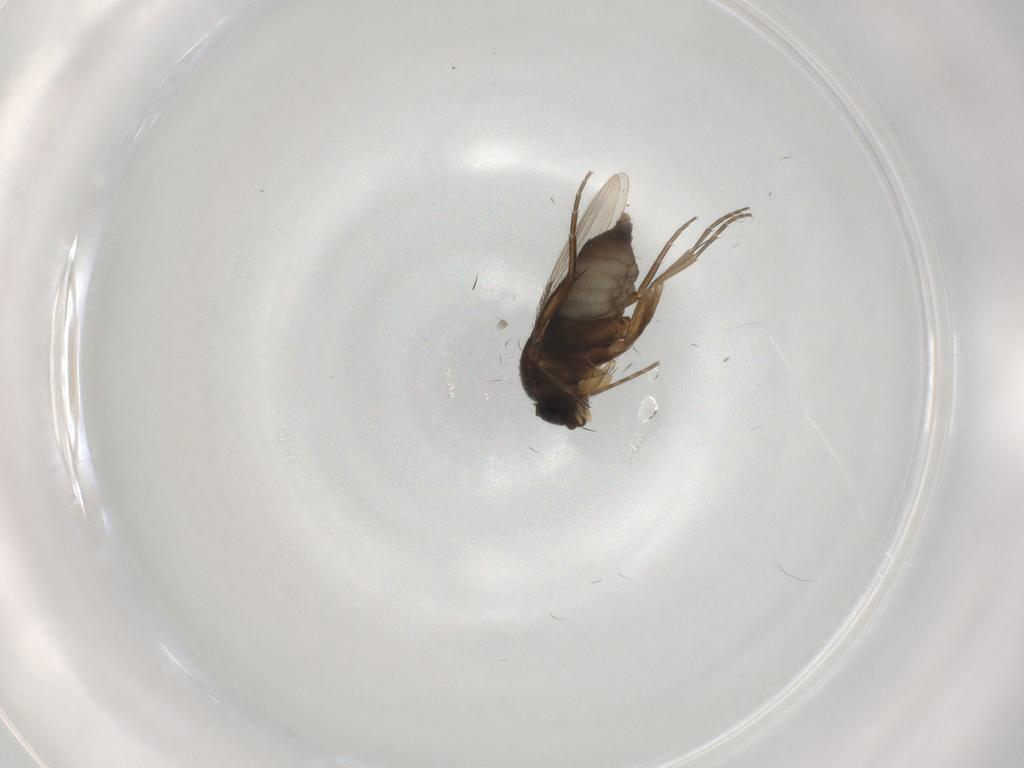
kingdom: Animalia
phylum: Arthropoda
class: Insecta
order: Diptera
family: Phoridae
